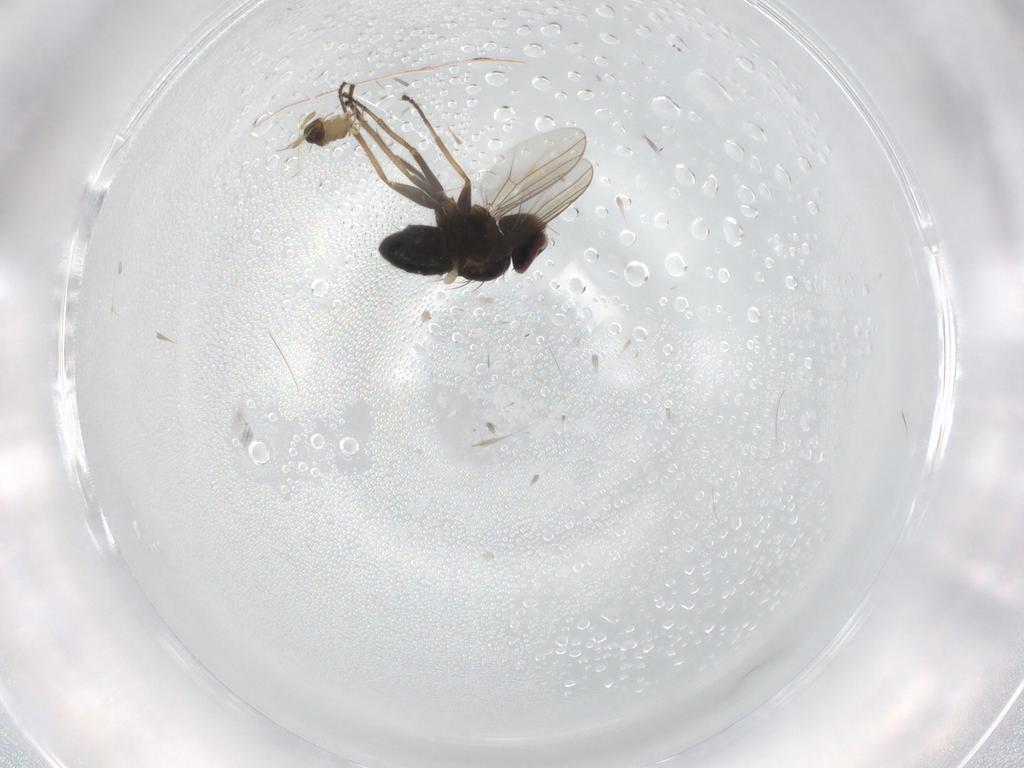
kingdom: Animalia
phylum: Arthropoda
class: Insecta
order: Diptera
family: Dolichopodidae
